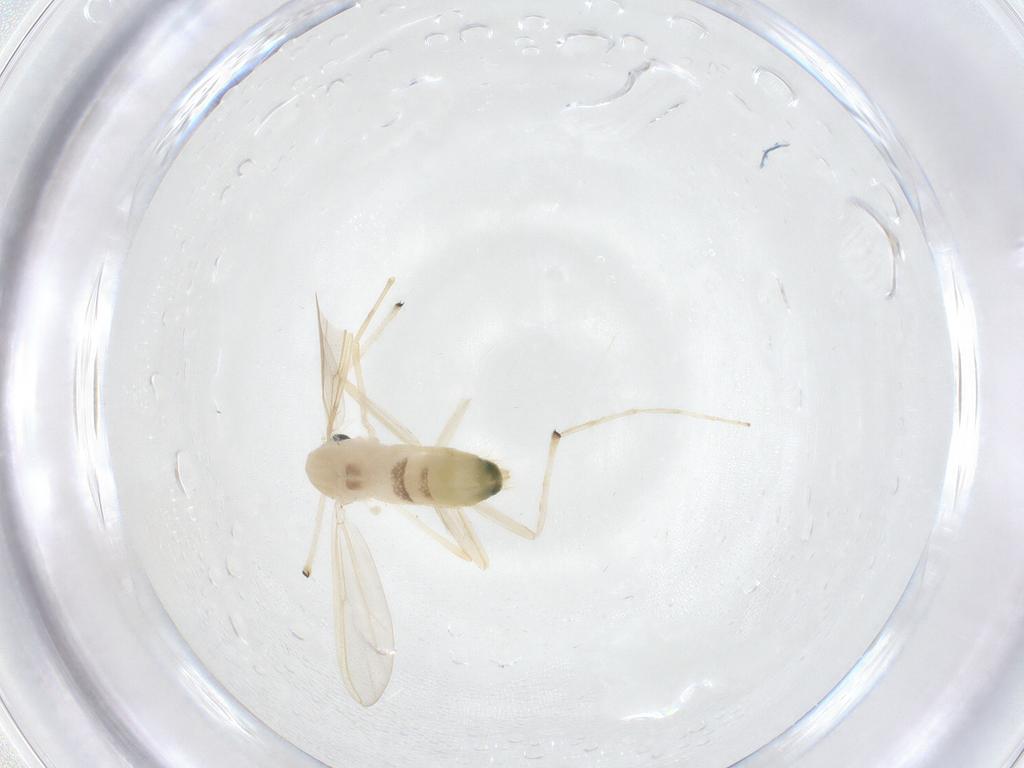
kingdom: Animalia
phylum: Arthropoda
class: Insecta
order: Diptera
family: Chironomidae
